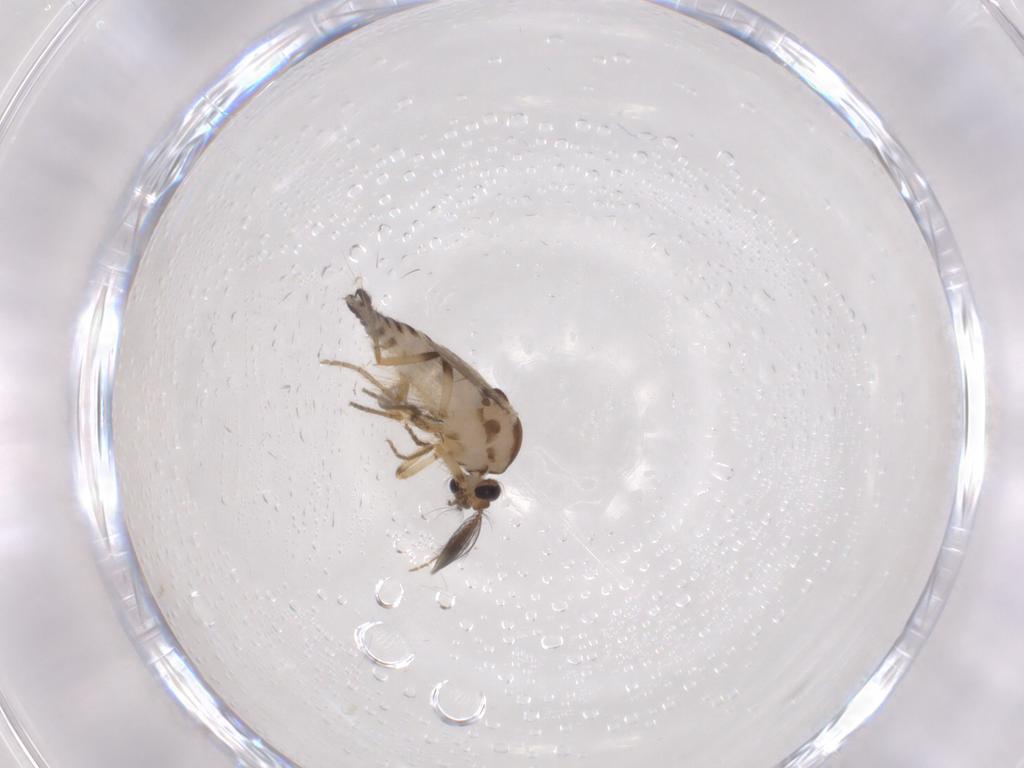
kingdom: Animalia
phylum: Arthropoda
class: Insecta
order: Diptera
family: Ceratopogonidae
